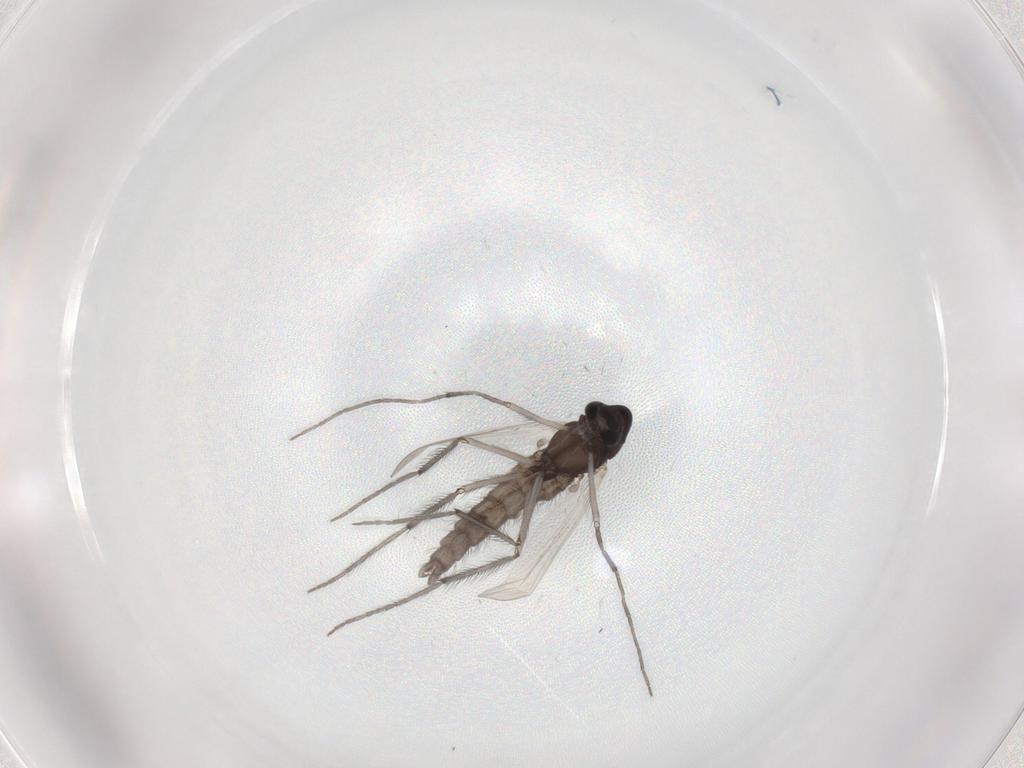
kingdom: Animalia
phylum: Arthropoda
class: Insecta
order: Diptera
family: Chironomidae
